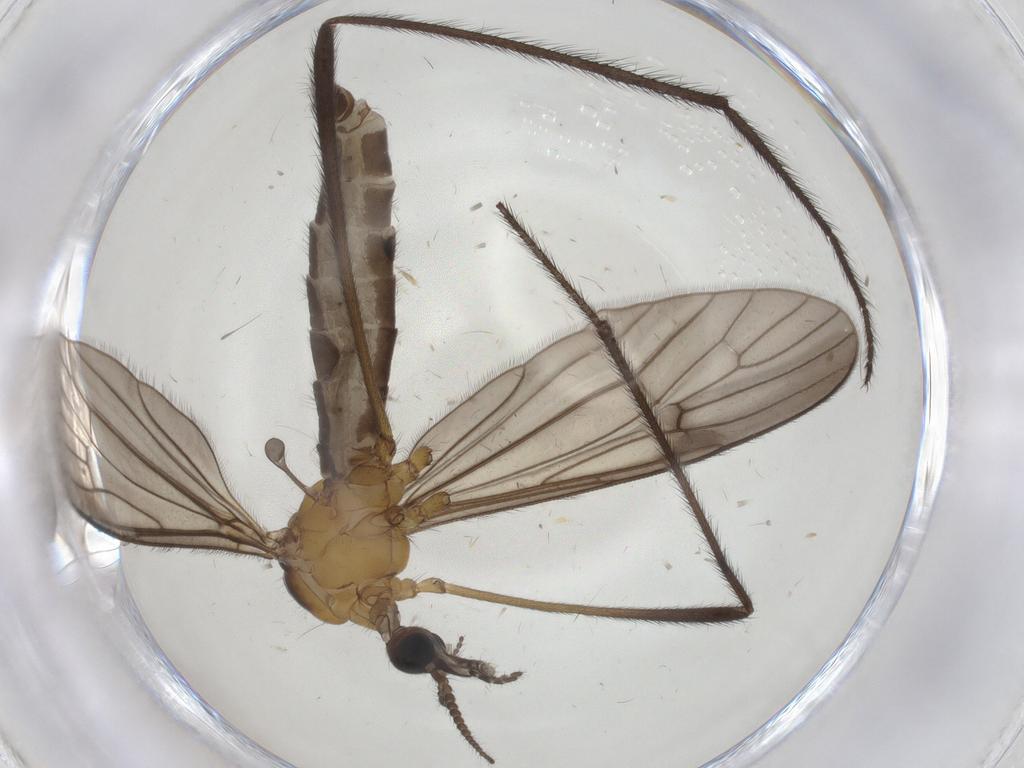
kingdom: Animalia
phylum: Arthropoda
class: Insecta
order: Diptera
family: Limoniidae
